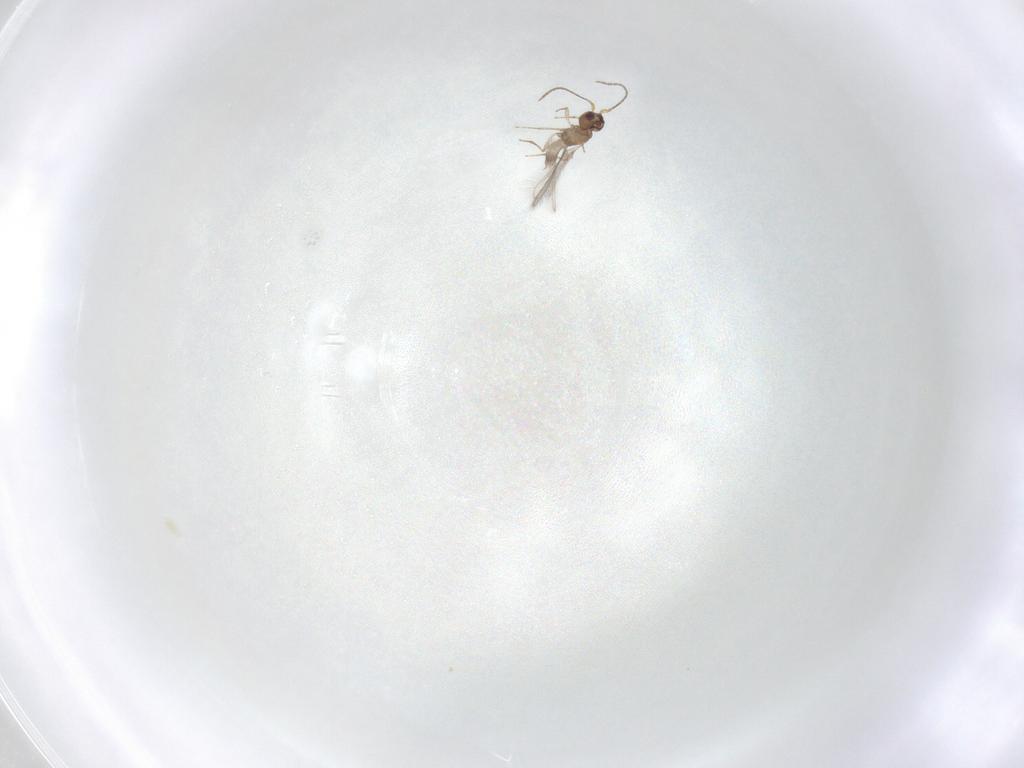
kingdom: Animalia
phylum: Arthropoda
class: Insecta
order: Hymenoptera
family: Mymaridae
